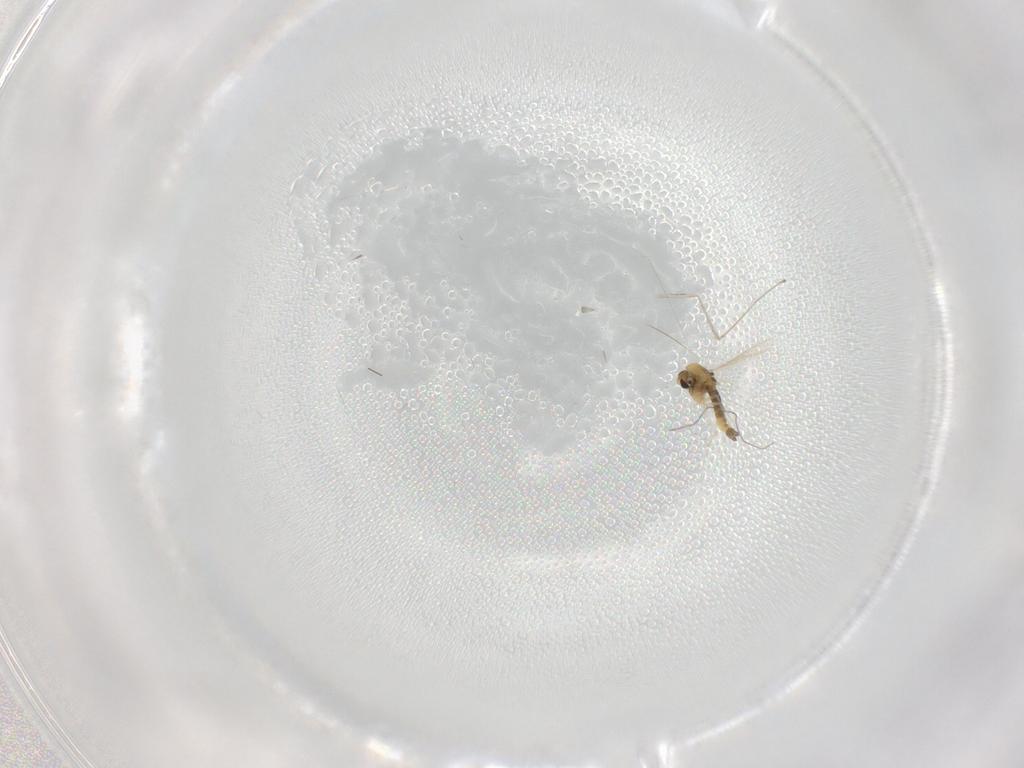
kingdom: Animalia
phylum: Arthropoda
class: Insecta
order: Diptera
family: Chironomidae
